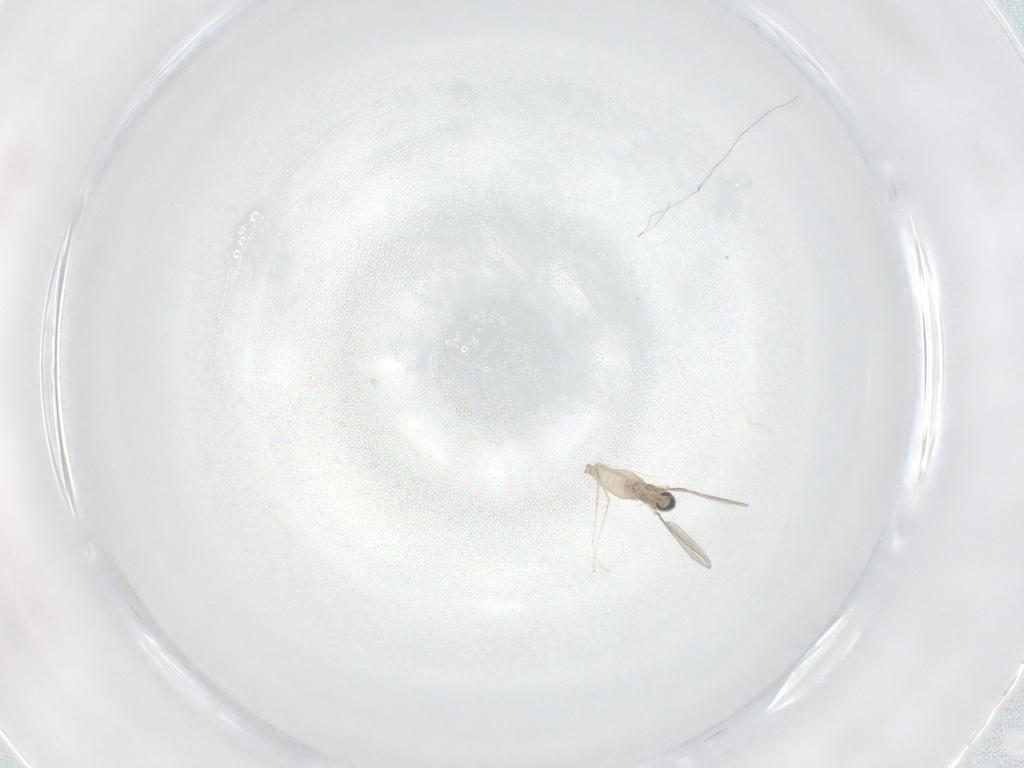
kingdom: Animalia
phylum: Arthropoda
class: Insecta
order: Diptera
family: Cecidomyiidae
